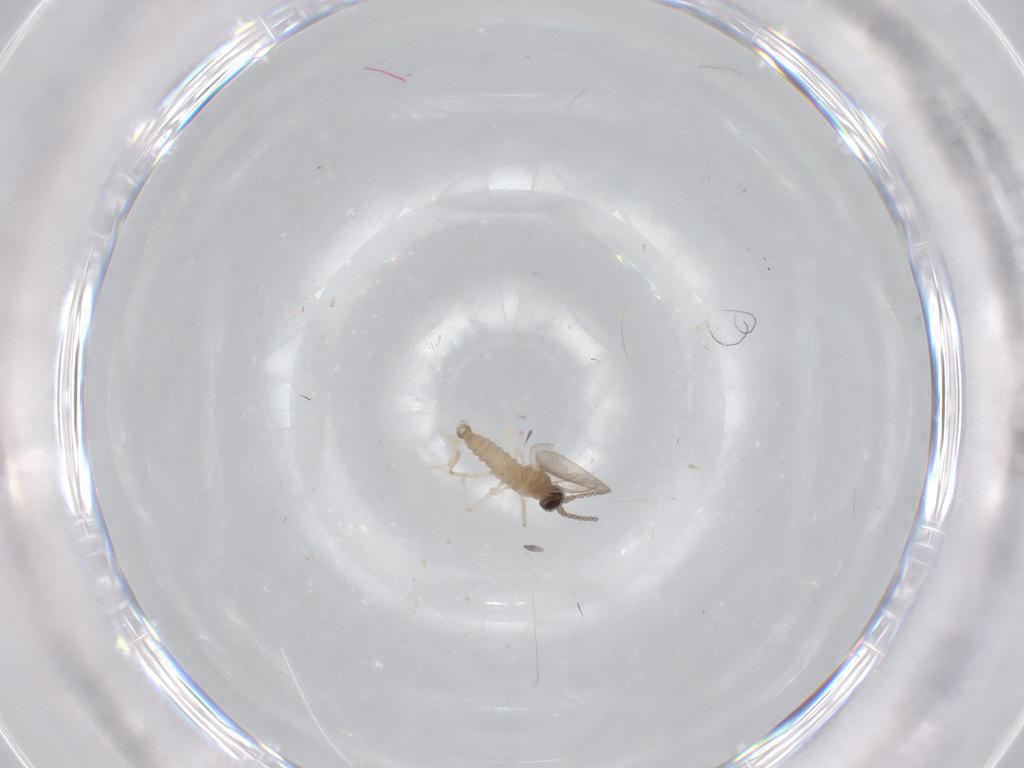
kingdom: Animalia
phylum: Arthropoda
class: Insecta
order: Diptera
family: Cecidomyiidae
